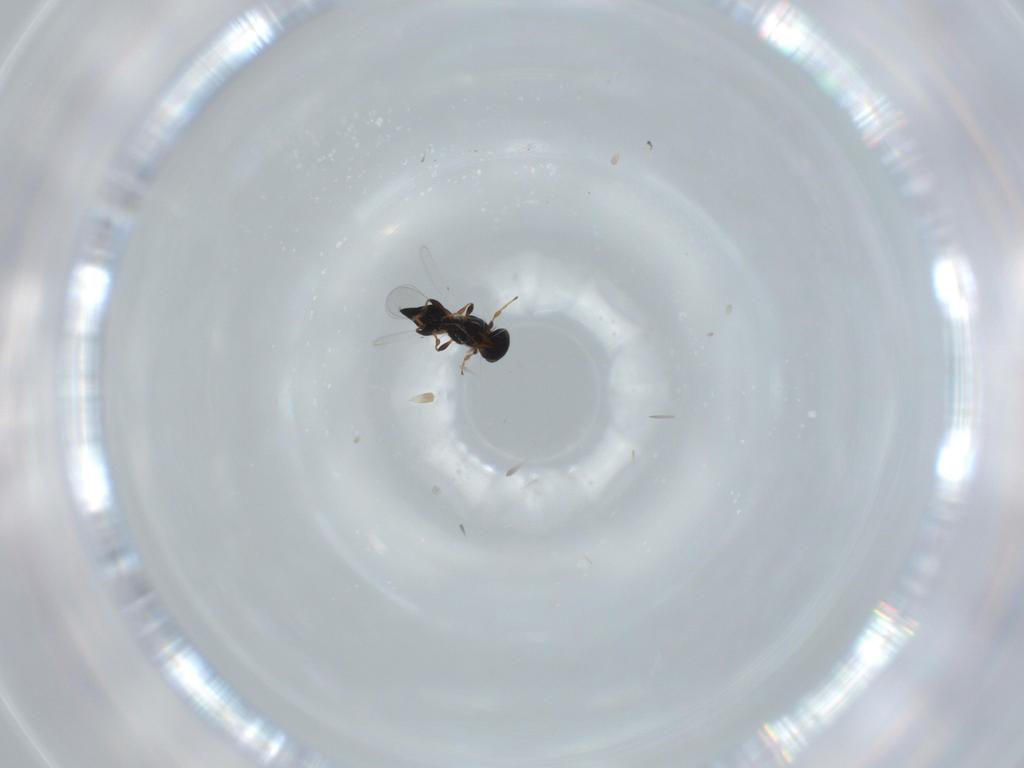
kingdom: Animalia
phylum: Arthropoda
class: Insecta
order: Hymenoptera
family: Platygastridae
